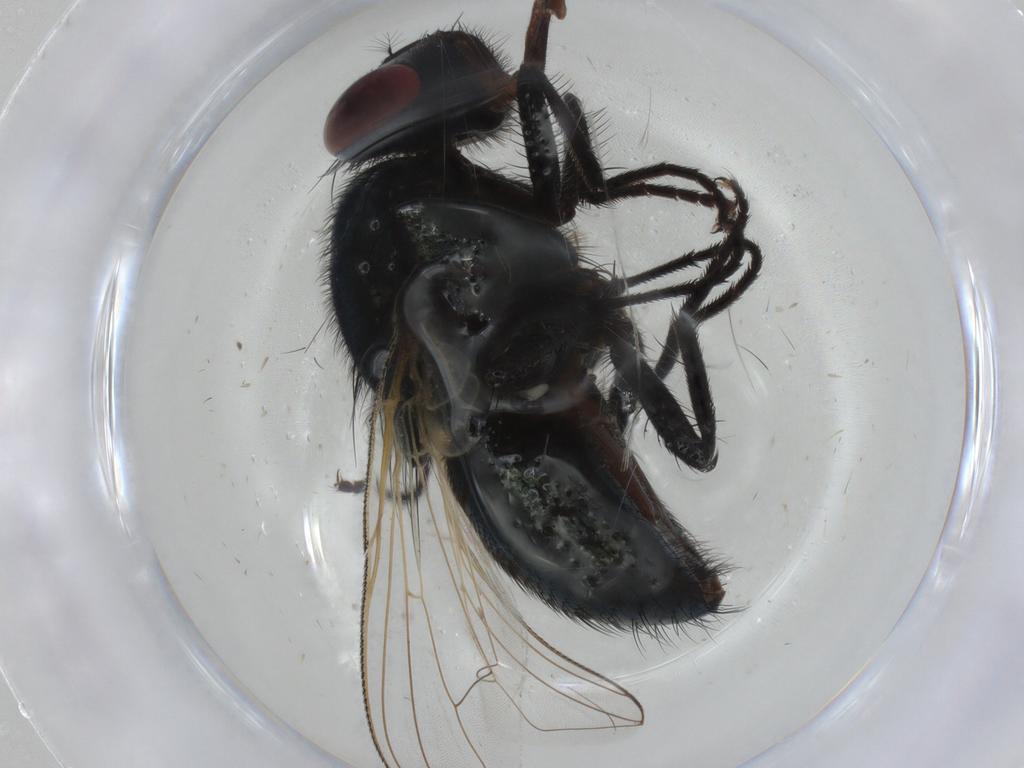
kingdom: Animalia
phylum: Arthropoda
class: Insecta
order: Diptera
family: Muscidae
